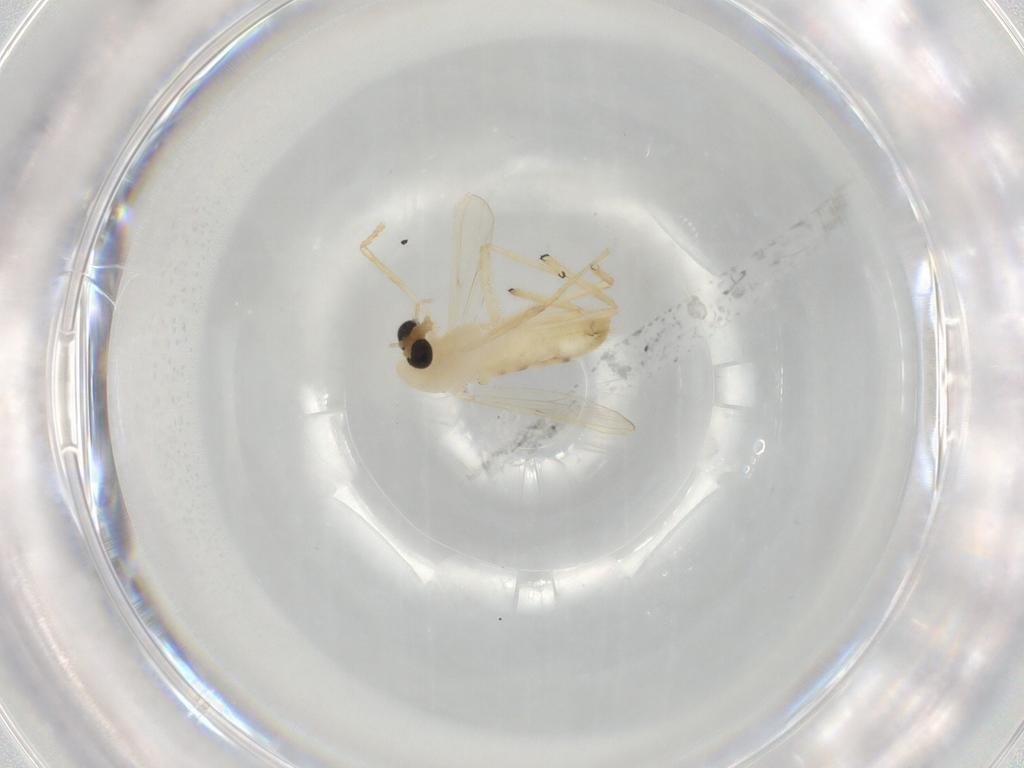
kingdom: Animalia
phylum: Arthropoda
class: Insecta
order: Diptera
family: Chironomidae
